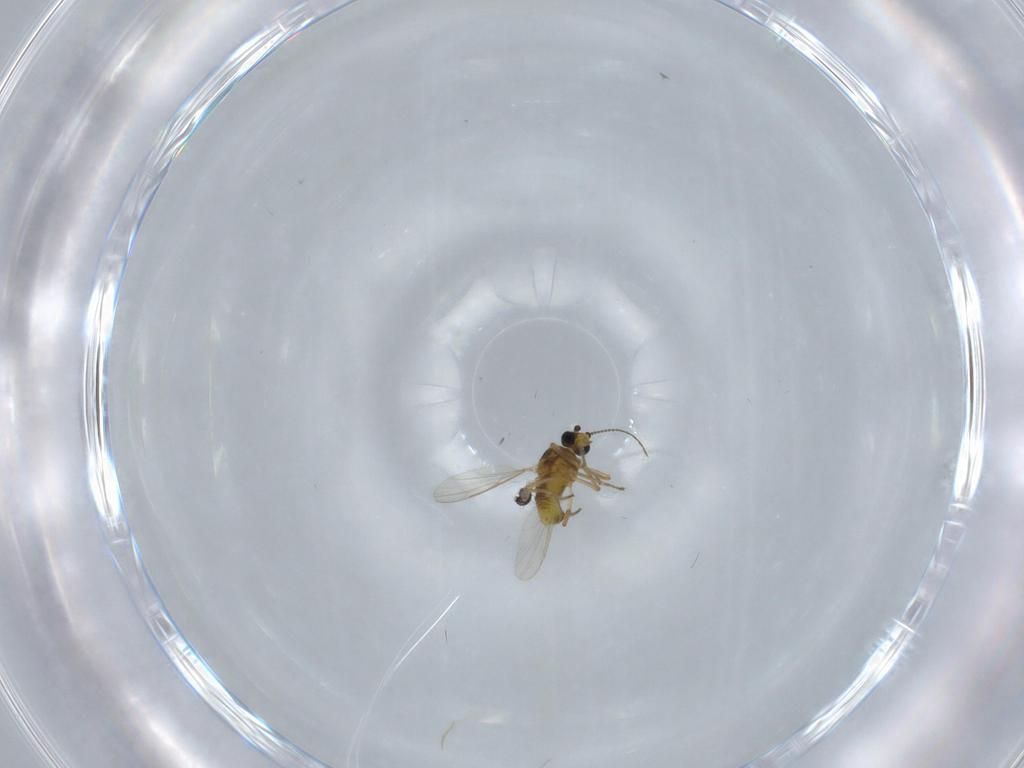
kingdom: Animalia
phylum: Arthropoda
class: Insecta
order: Diptera
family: Ceratopogonidae
